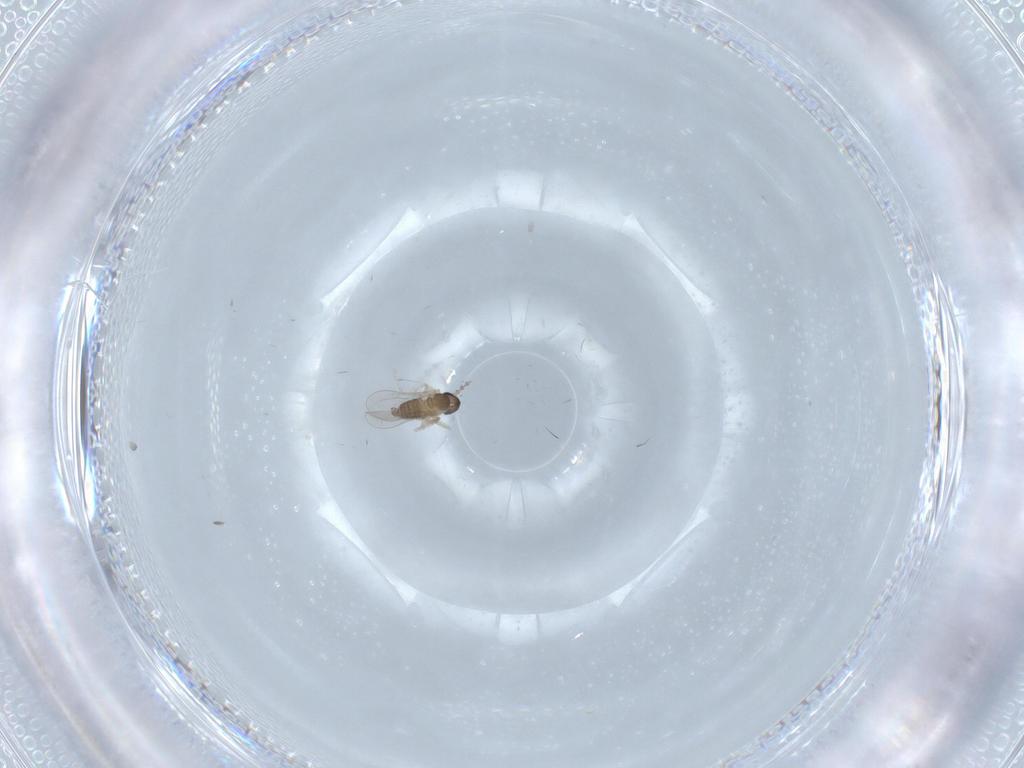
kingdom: Animalia
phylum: Arthropoda
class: Insecta
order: Diptera
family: Cecidomyiidae
